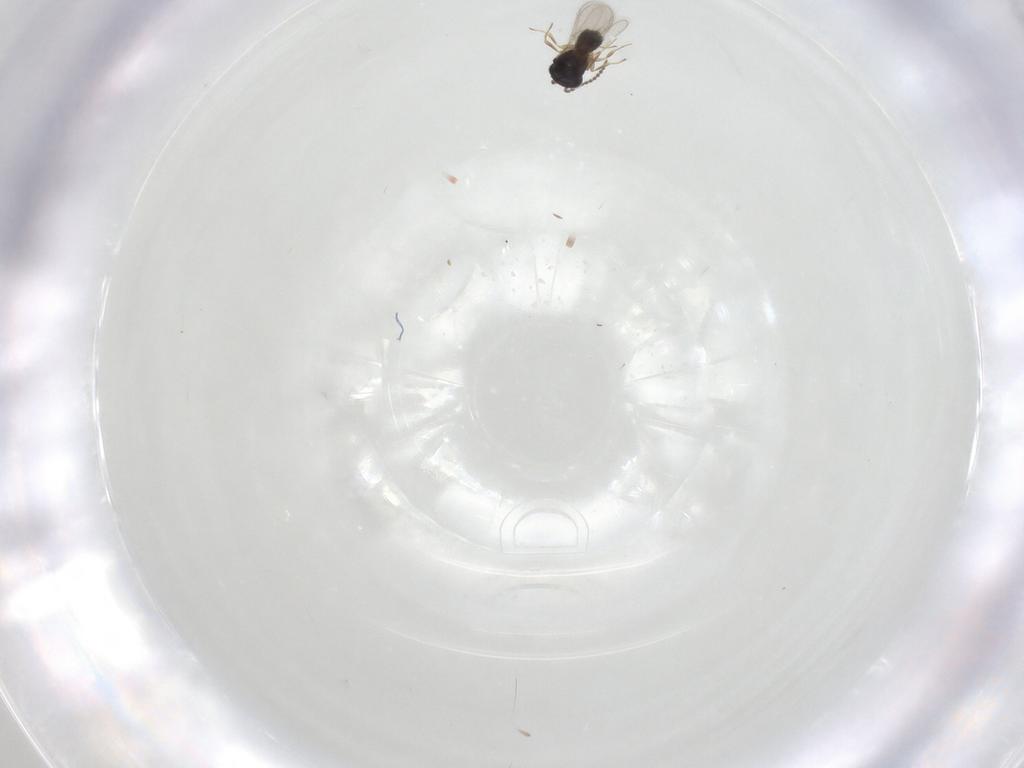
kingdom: Animalia
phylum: Arthropoda
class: Insecta
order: Hymenoptera
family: Scelionidae
